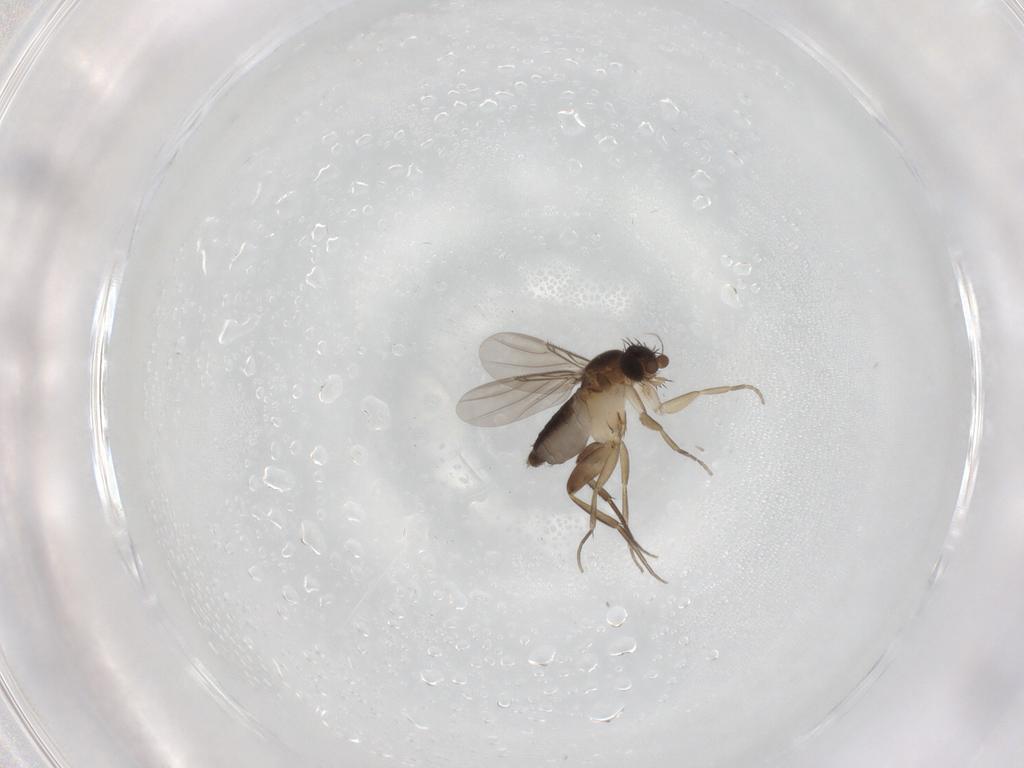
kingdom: Animalia
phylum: Arthropoda
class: Insecta
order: Diptera
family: Phoridae
